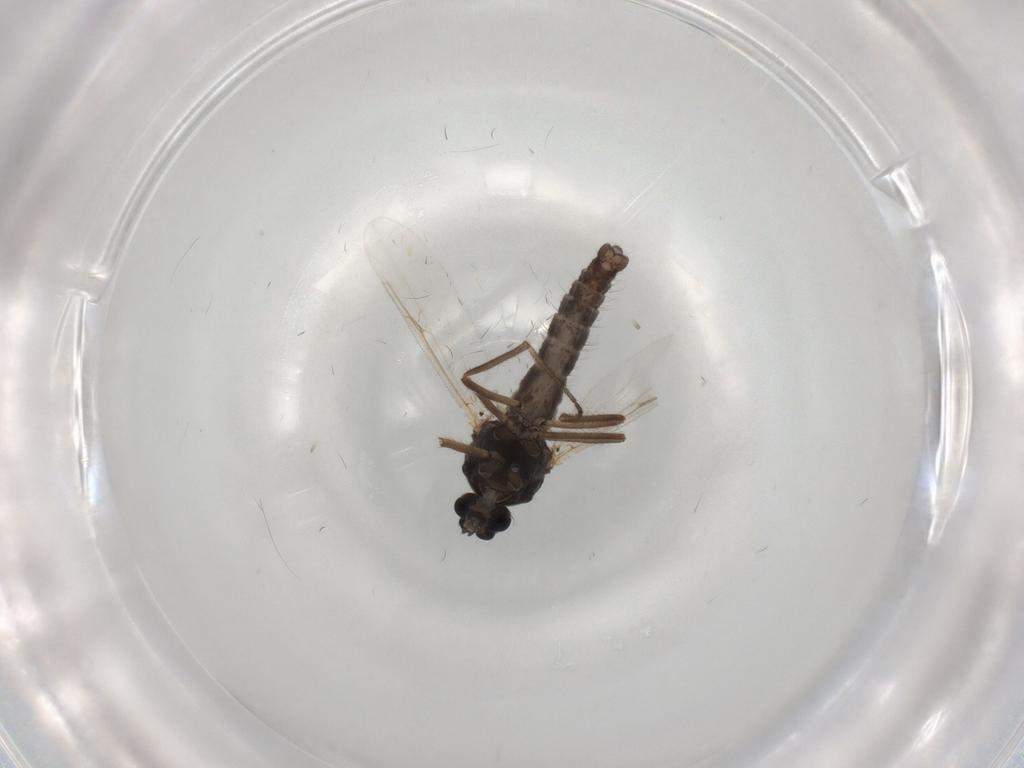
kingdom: Animalia
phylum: Arthropoda
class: Insecta
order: Diptera
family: Ceratopogonidae
